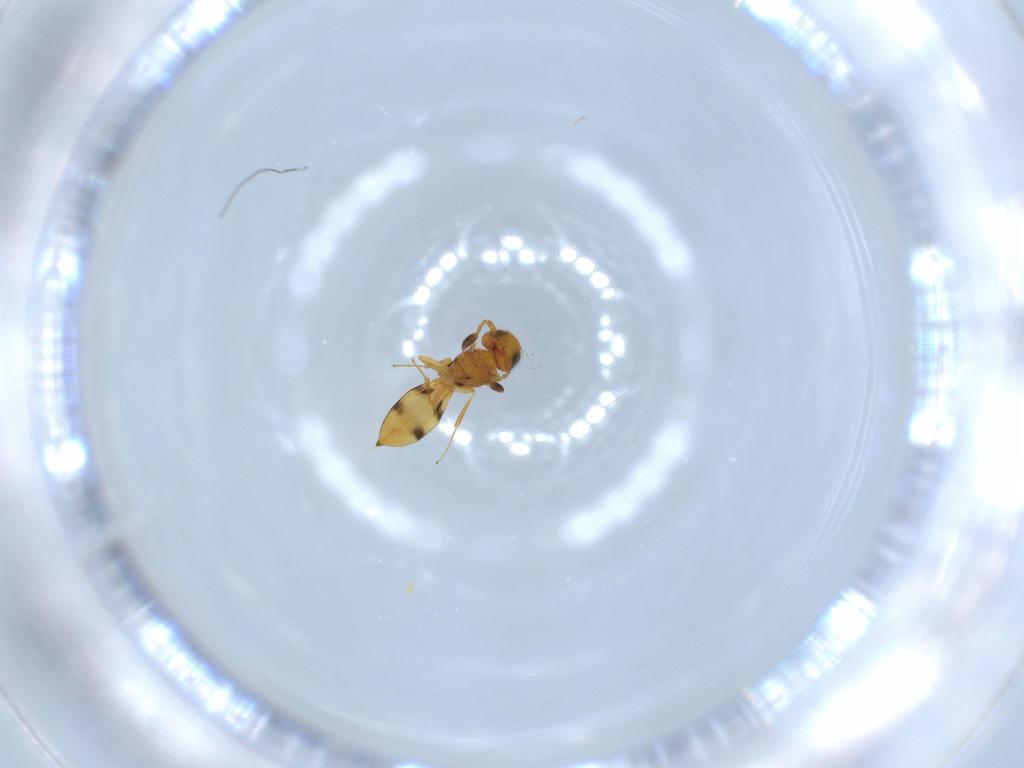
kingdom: Animalia
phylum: Arthropoda
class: Insecta
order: Hymenoptera
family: Scelionidae
